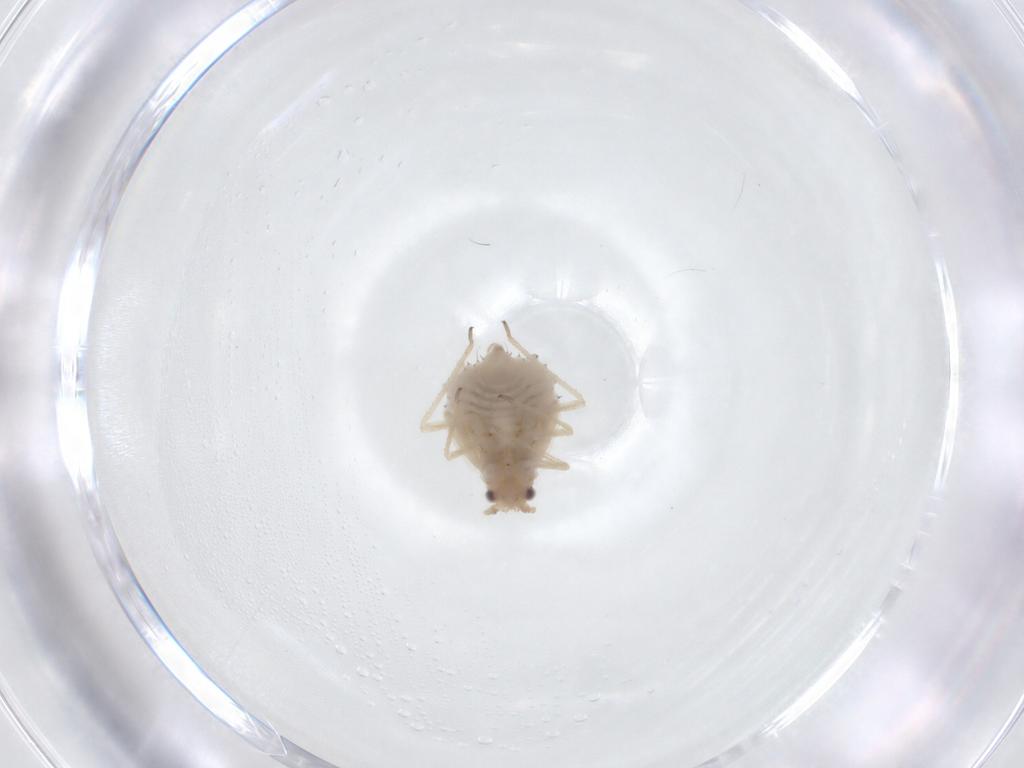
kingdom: Animalia
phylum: Arthropoda
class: Insecta
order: Hemiptera
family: Aphididae
